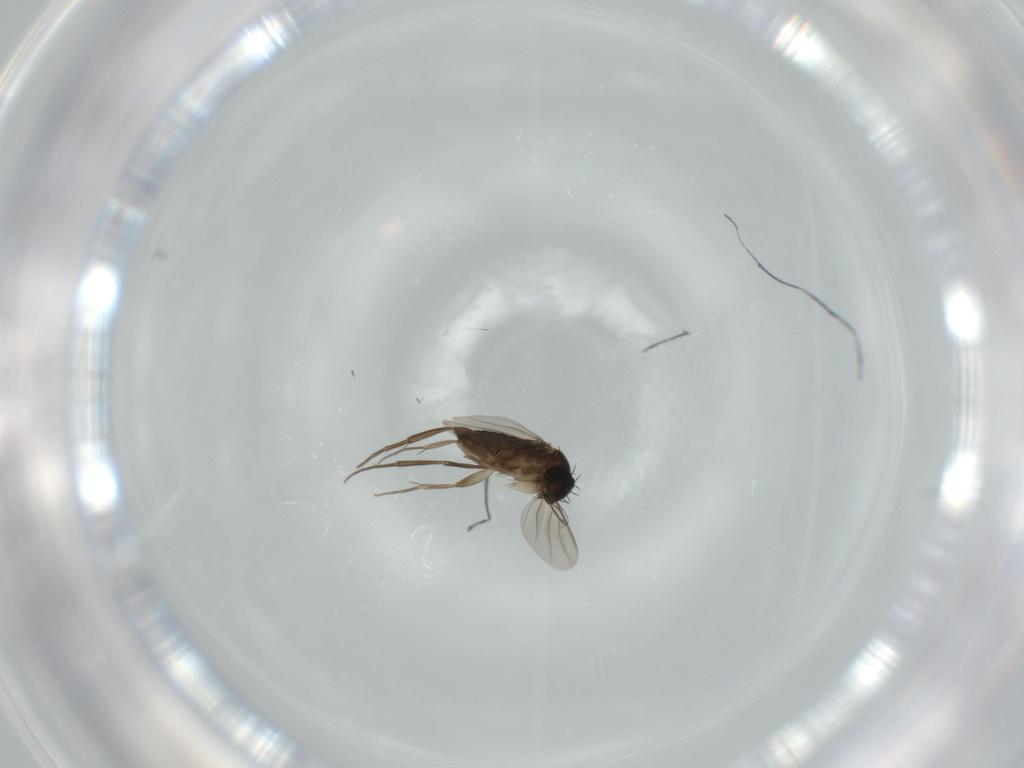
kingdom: Animalia
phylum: Arthropoda
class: Insecta
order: Diptera
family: Phoridae
